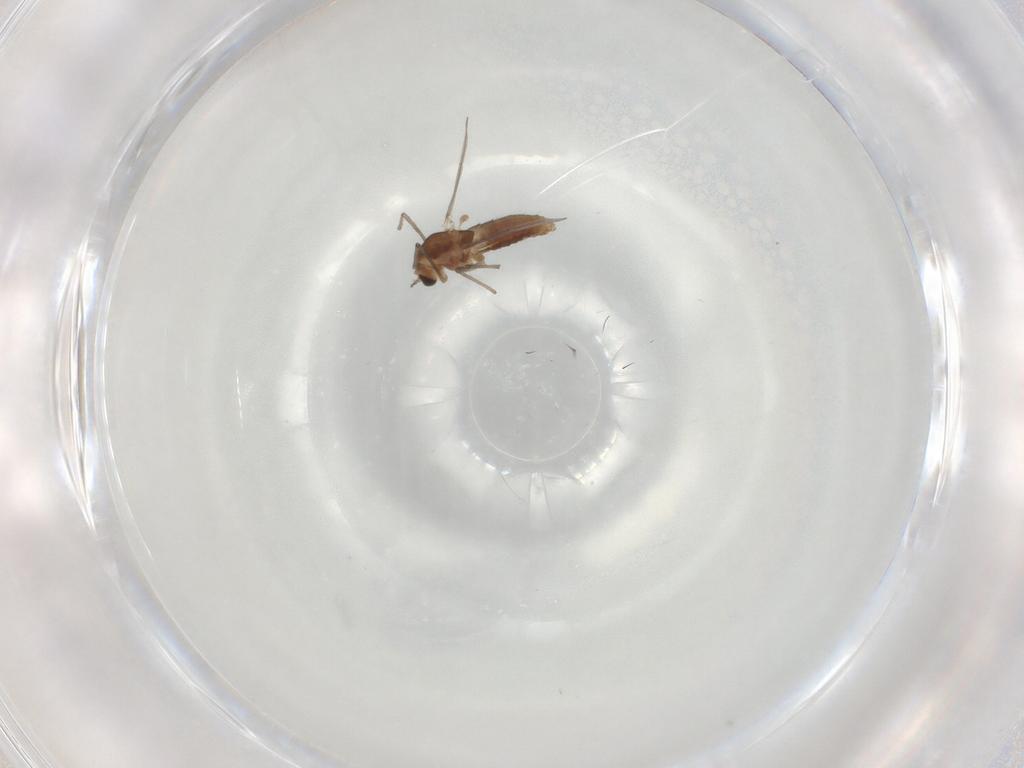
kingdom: Animalia
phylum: Arthropoda
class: Insecta
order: Diptera
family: Chironomidae
